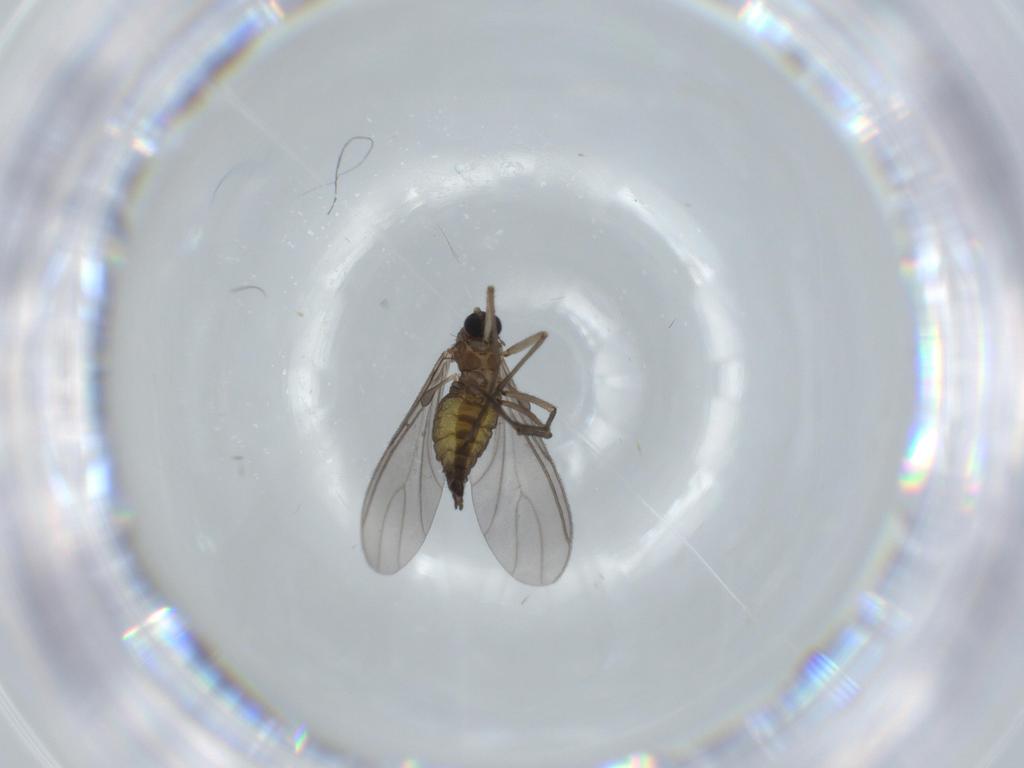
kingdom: Animalia
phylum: Arthropoda
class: Insecta
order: Diptera
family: Sciaridae
